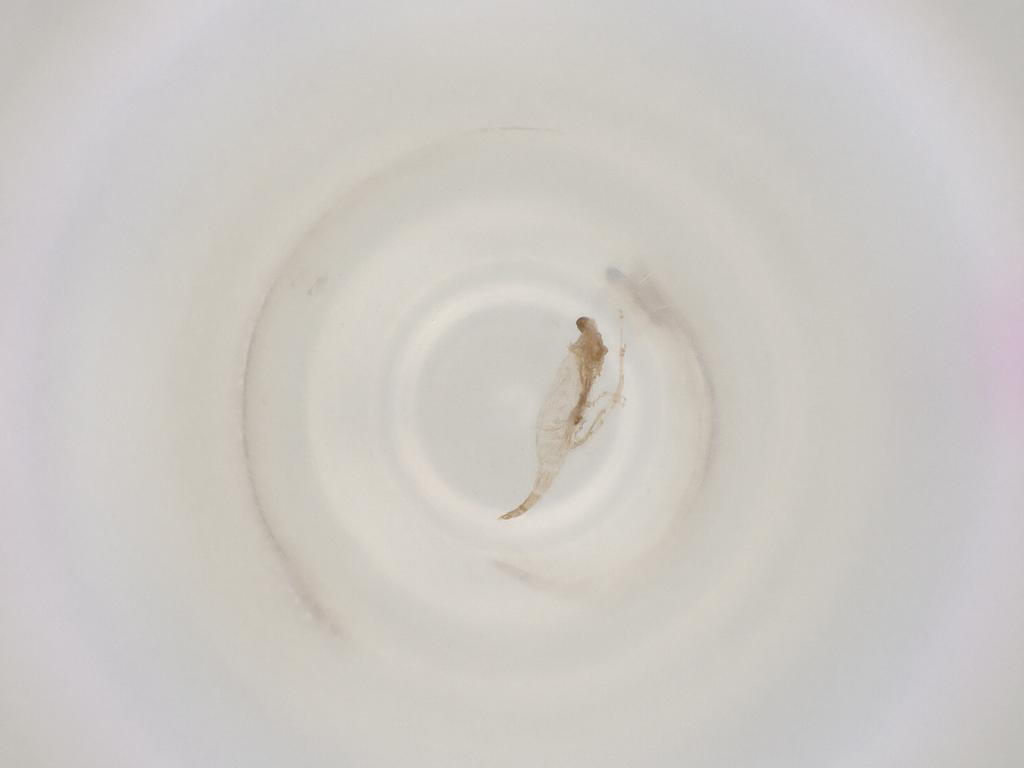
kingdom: Animalia
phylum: Arthropoda
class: Insecta
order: Diptera
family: Cecidomyiidae
